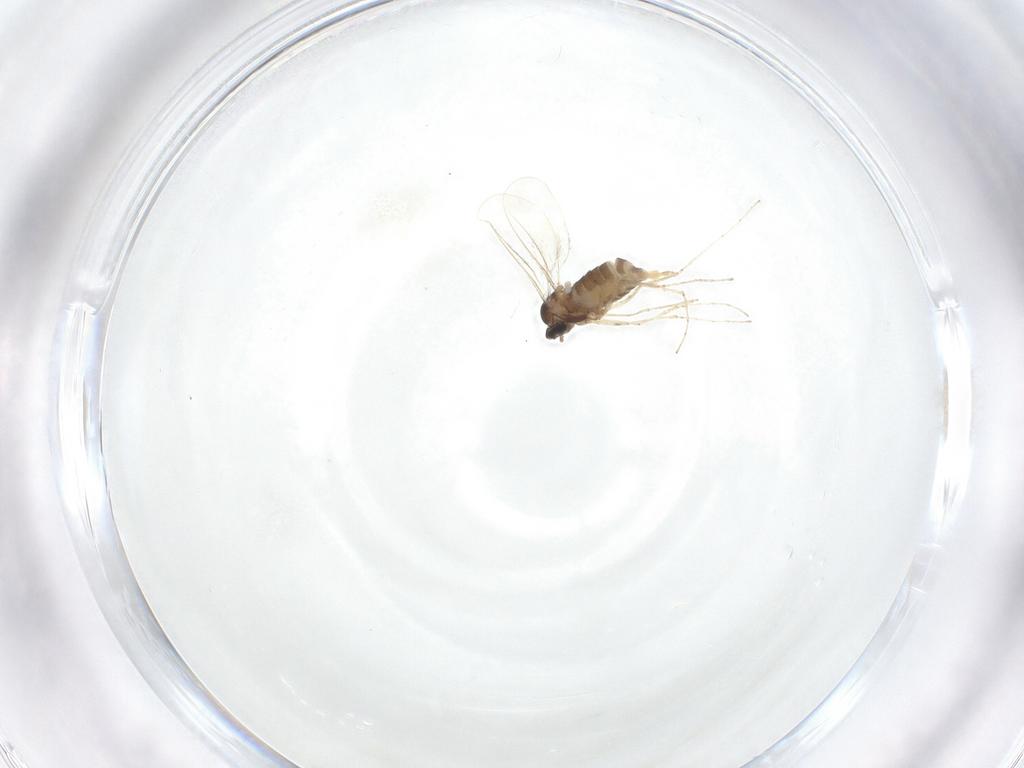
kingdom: Animalia
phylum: Arthropoda
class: Insecta
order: Diptera
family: Cecidomyiidae
